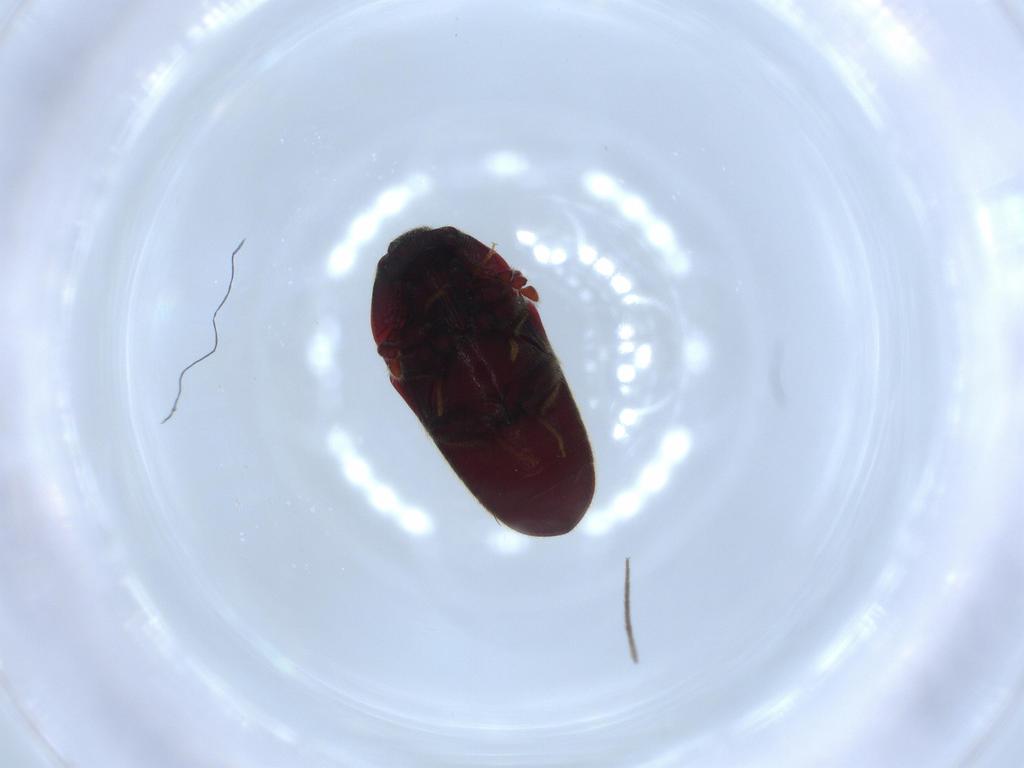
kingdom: Animalia
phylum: Arthropoda
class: Insecta
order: Coleoptera
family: Throscidae
